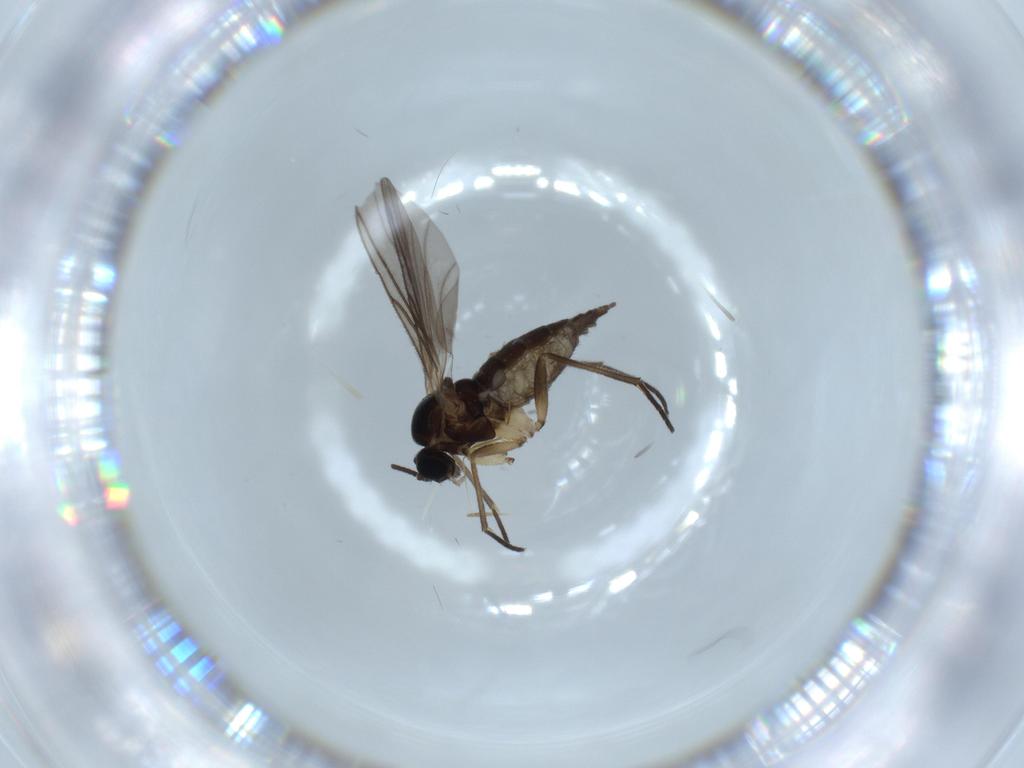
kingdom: Animalia
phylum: Arthropoda
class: Insecta
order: Diptera
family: Sciaridae
